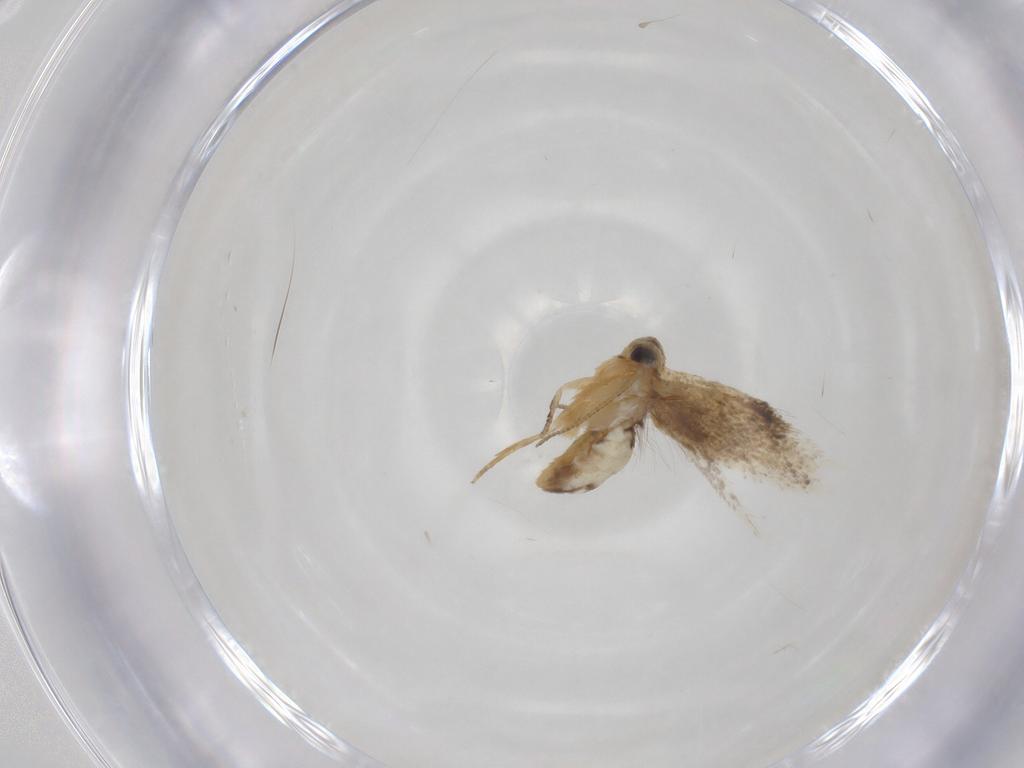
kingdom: Animalia
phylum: Arthropoda
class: Insecta
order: Lepidoptera
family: Nepticulidae
